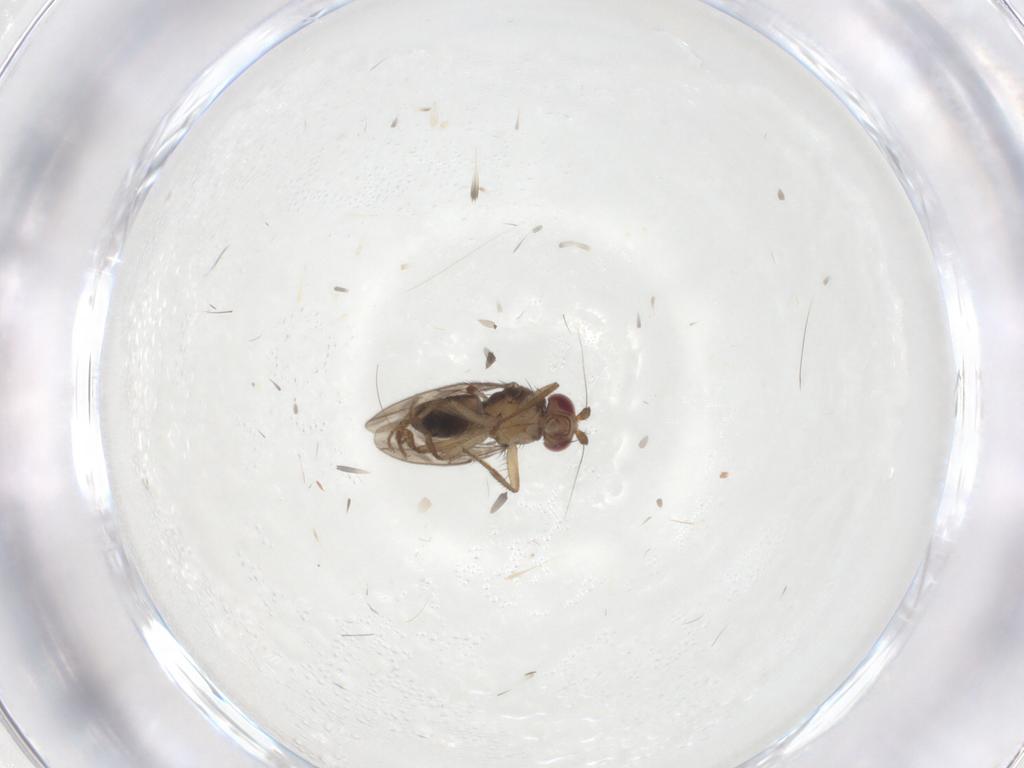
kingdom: Animalia
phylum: Arthropoda
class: Insecta
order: Diptera
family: Sphaeroceridae
